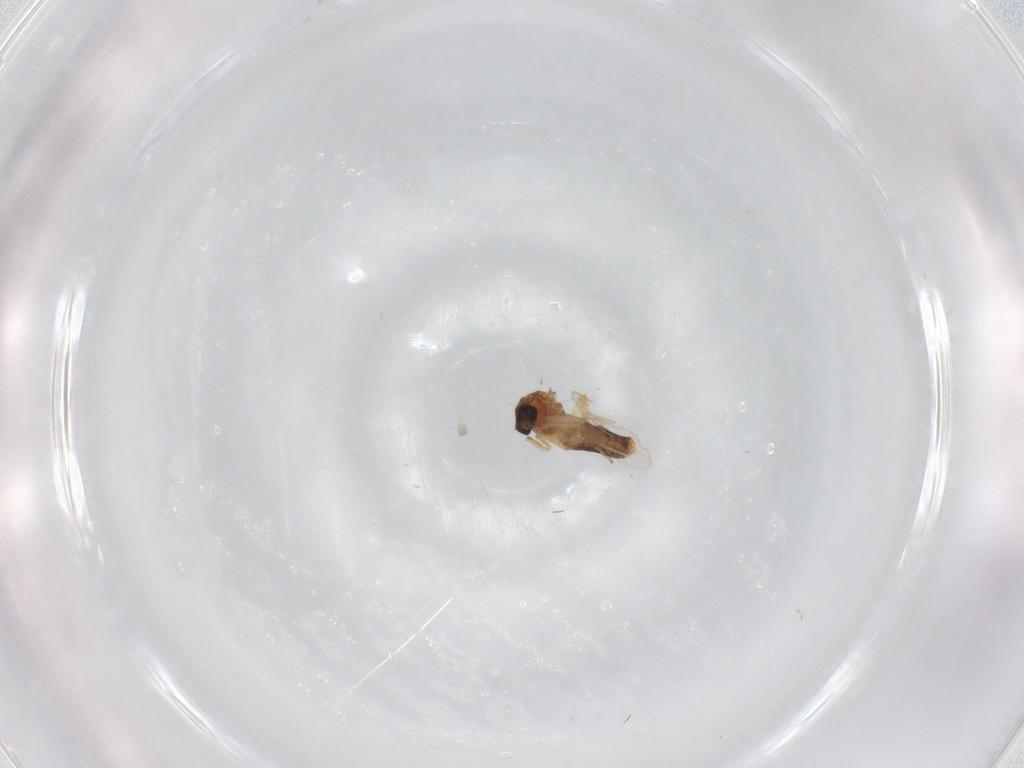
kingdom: Animalia
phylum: Arthropoda
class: Insecta
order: Diptera
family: Ceratopogonidae
